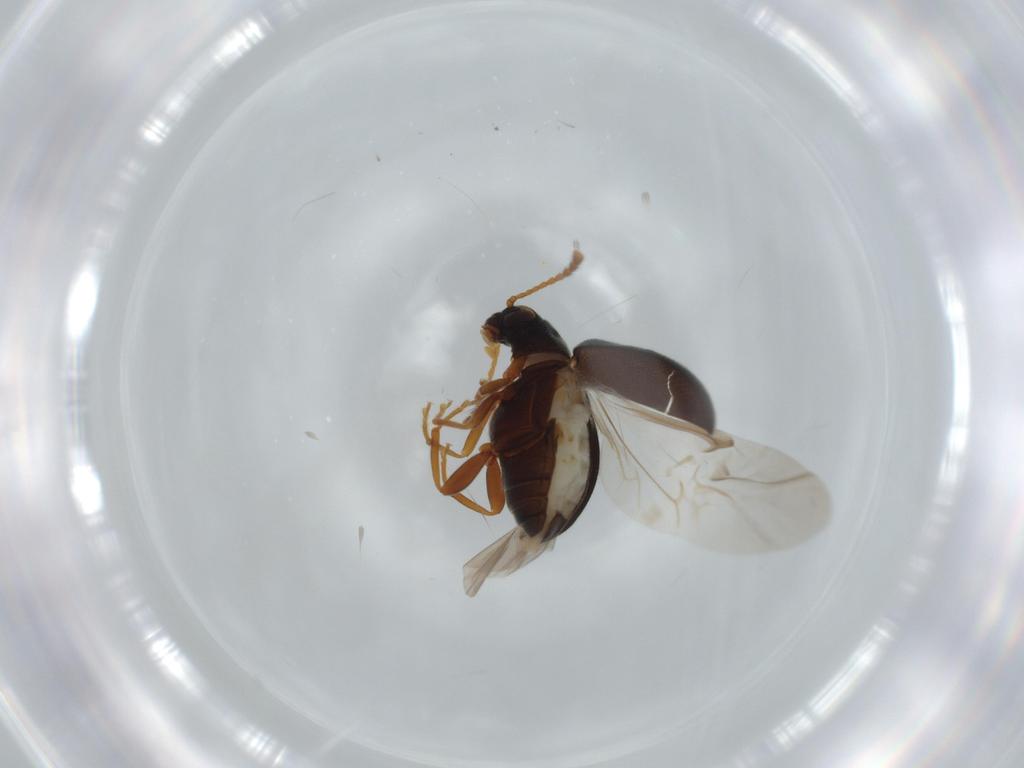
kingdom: Animalia
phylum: Arthropoda
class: Insecta
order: Coleoptera
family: Aderidae
